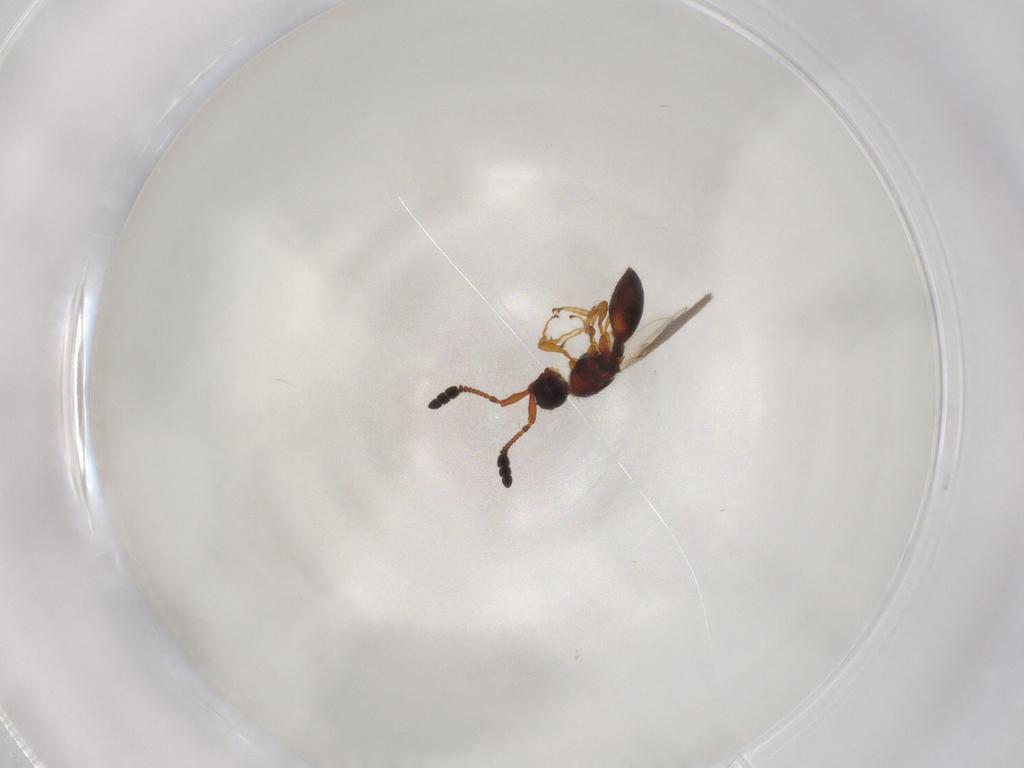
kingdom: Animalia
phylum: Arthropoda
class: Insecta
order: Hymenoptera
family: Diapriidae
